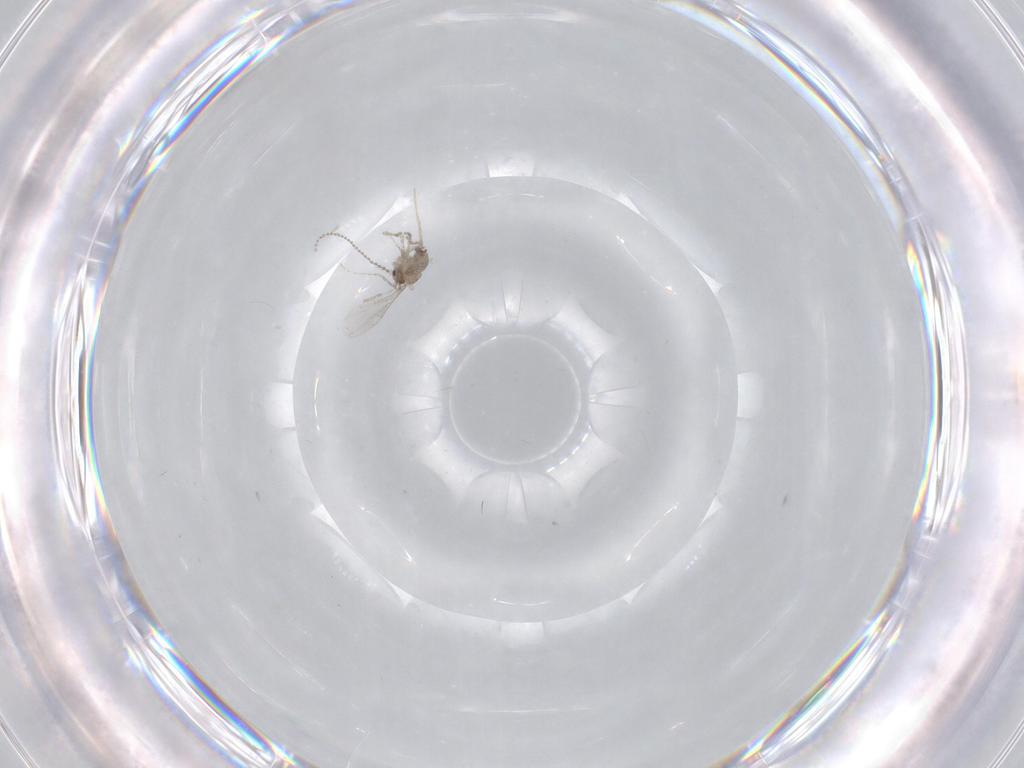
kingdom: Animalia
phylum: Arthropoda
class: Insecta
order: Diptera
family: Cecidomyiidae
